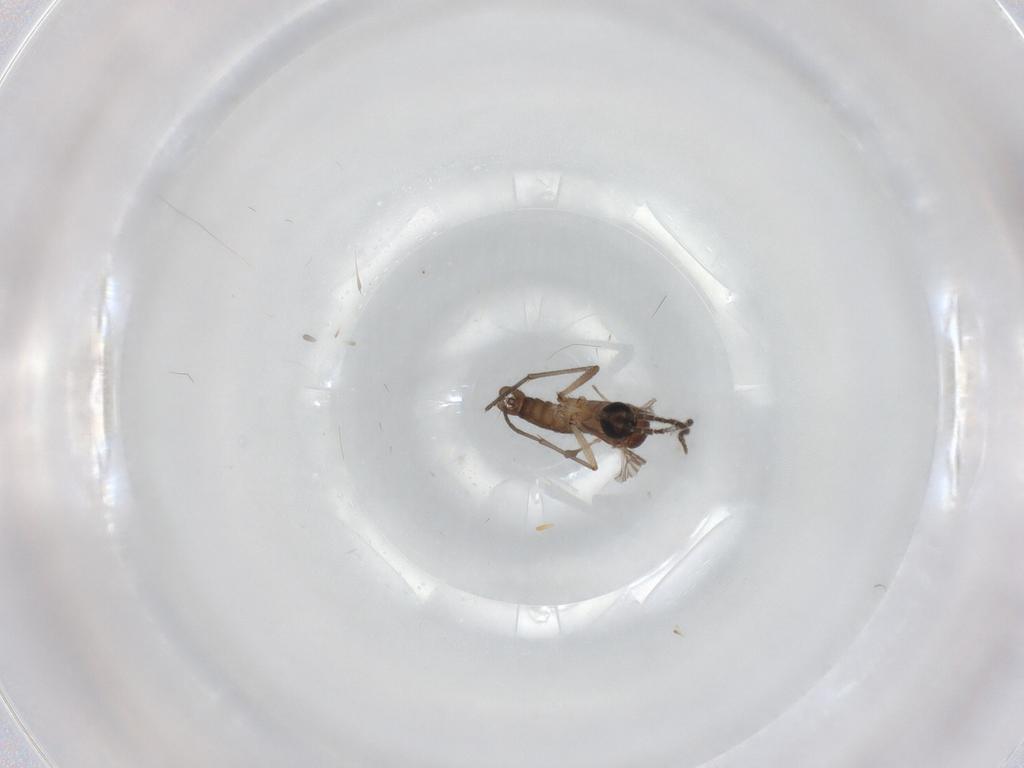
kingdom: Animalia
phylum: Arthropoda
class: Insecta
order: Diptera
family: Sciaridae
